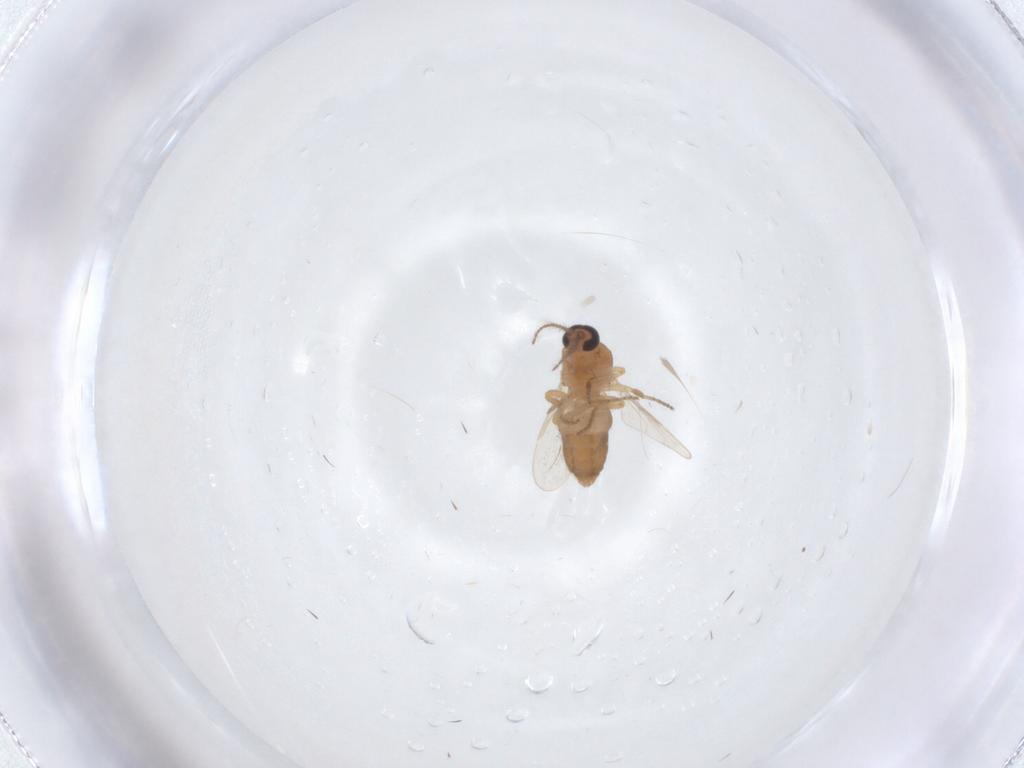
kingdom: Animalia
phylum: Arthropoda
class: Insecta
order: Diptera
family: Ceratopogonidae
